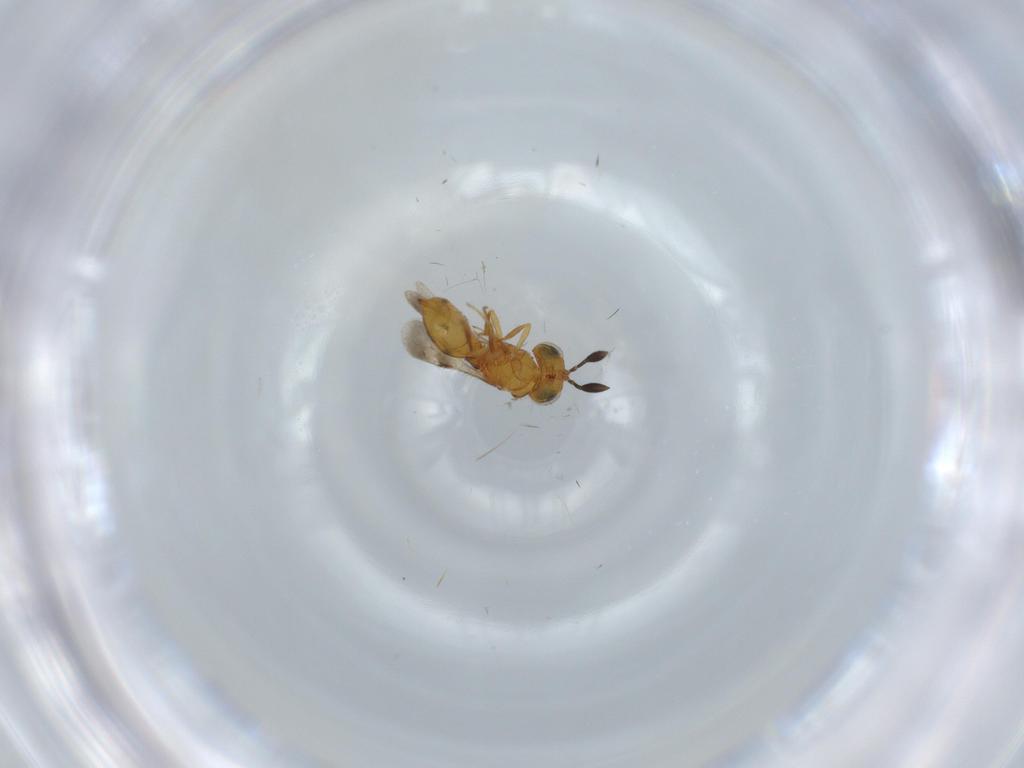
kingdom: Animalia
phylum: Arthropoda
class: Insecta
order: Hymenoptera
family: Scelionidae
